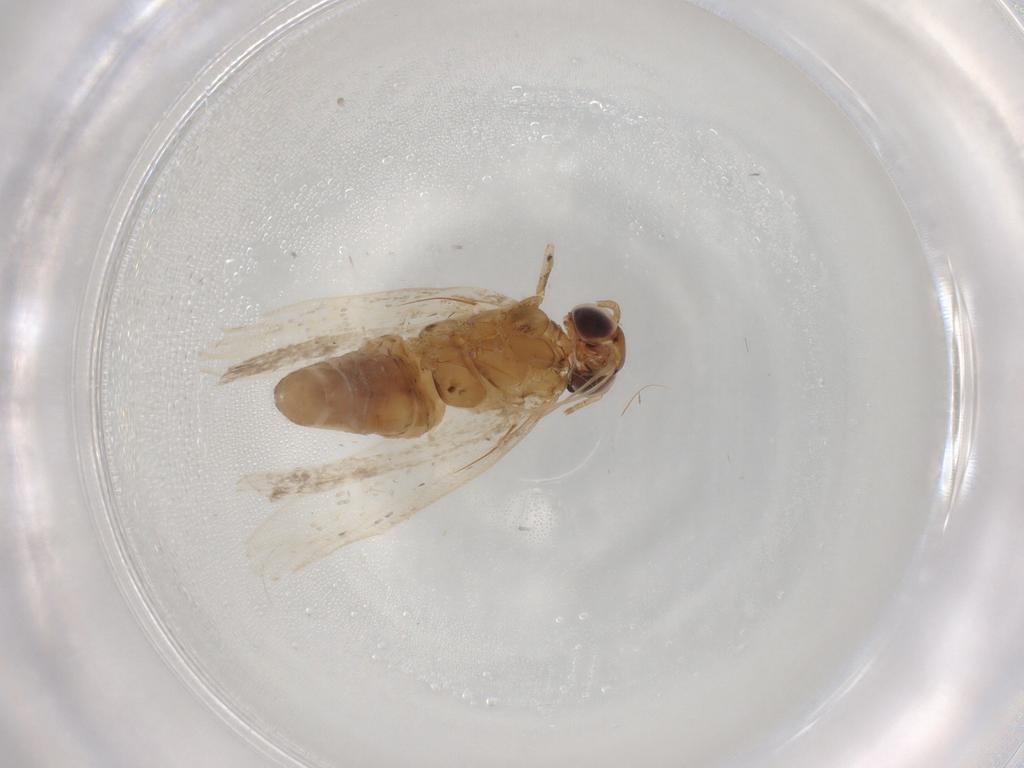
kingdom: Animalia
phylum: Arthropoda
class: Insecta
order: Lepidoptera
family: Gelechiidae
